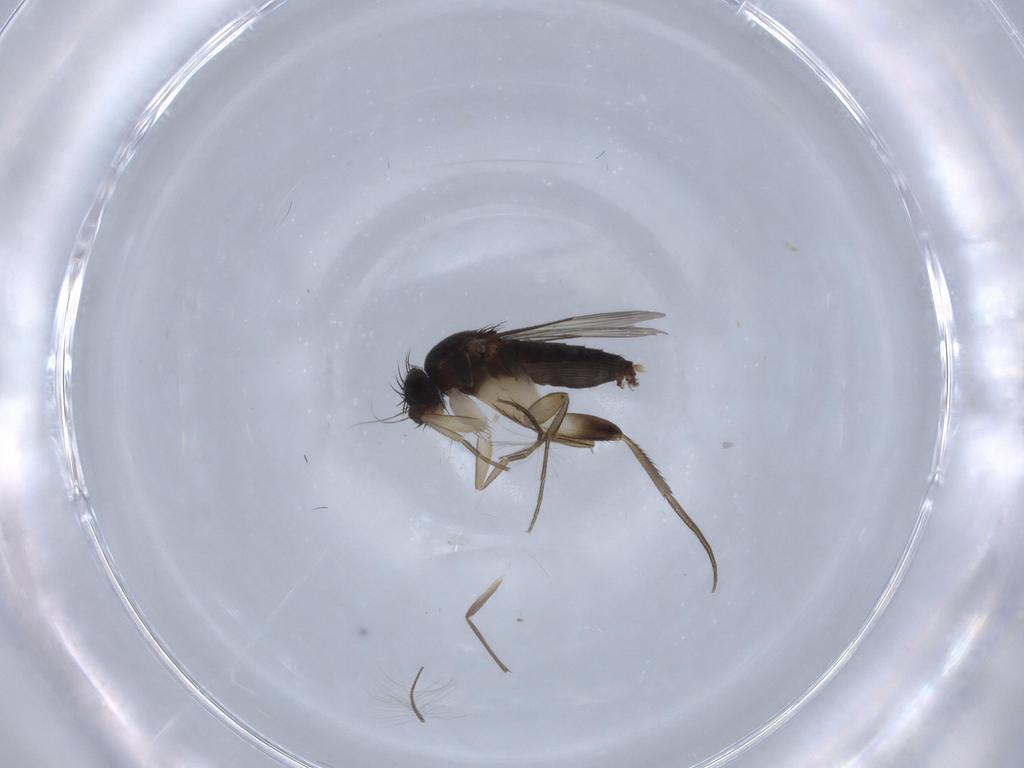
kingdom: Animalia
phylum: Arthropoda
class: Insecta
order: Diptera
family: Phoridae
